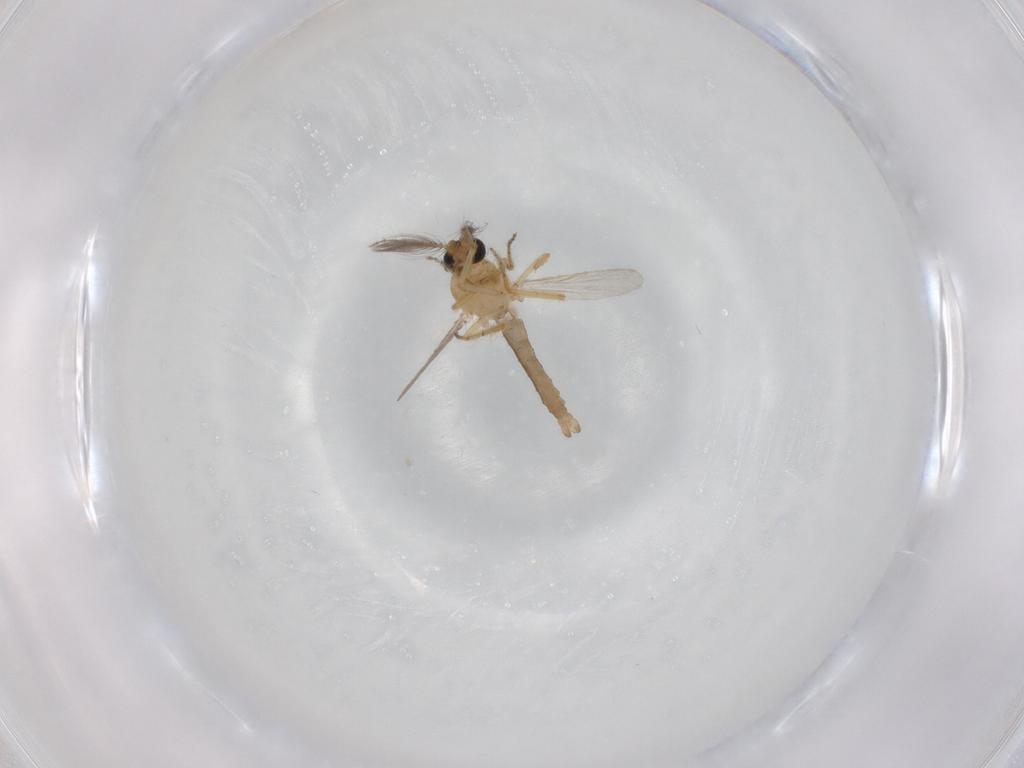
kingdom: Animalia
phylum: Arthropoda
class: Insecta
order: Diptera
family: Ceratopogonidae
